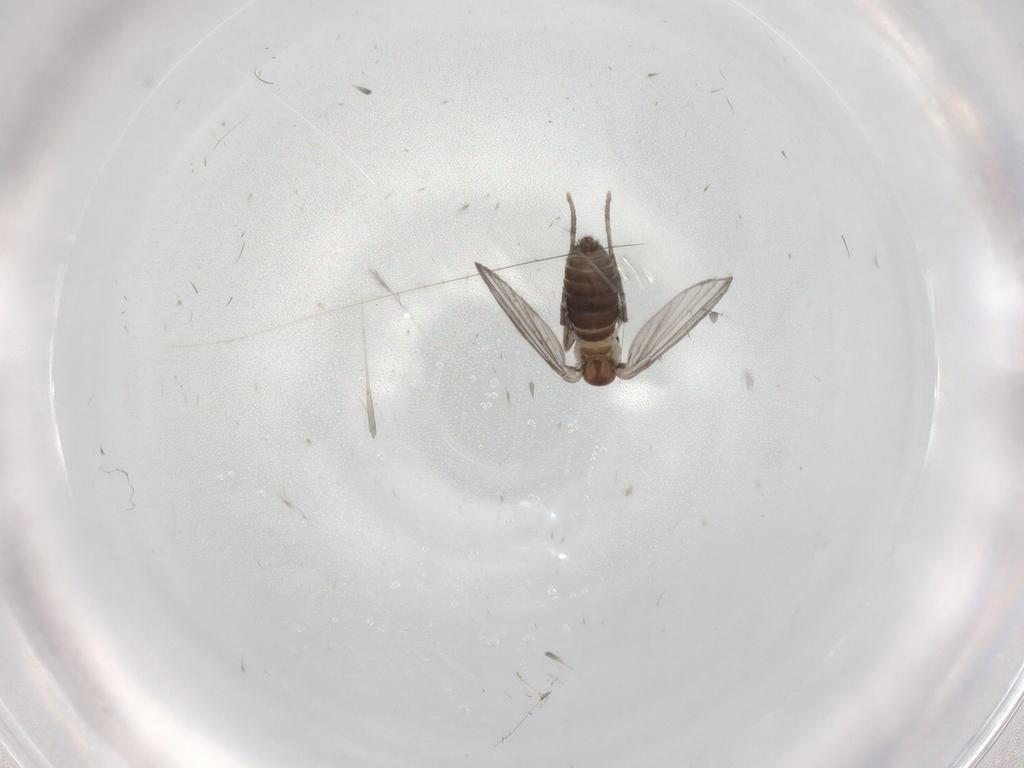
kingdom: Animalia
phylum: Arthropoda
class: Insecta
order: Diptera
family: Psychodidae
